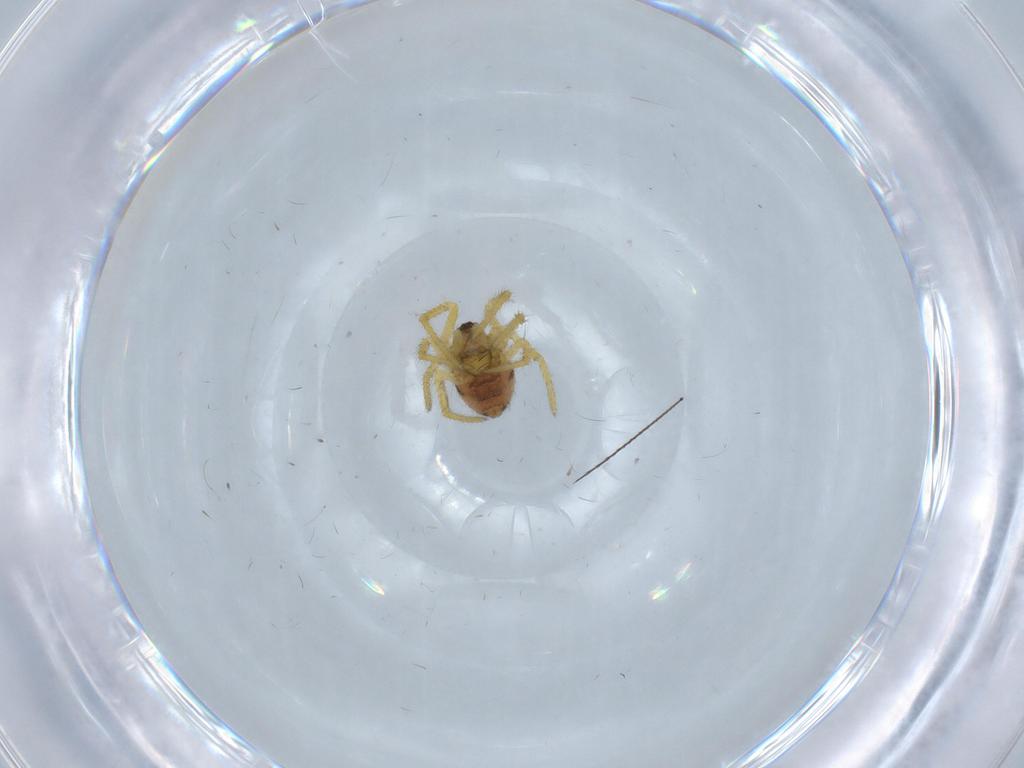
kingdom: Animalia
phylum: Arthropoda
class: Arachnida
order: Araneae
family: Theridiidae
